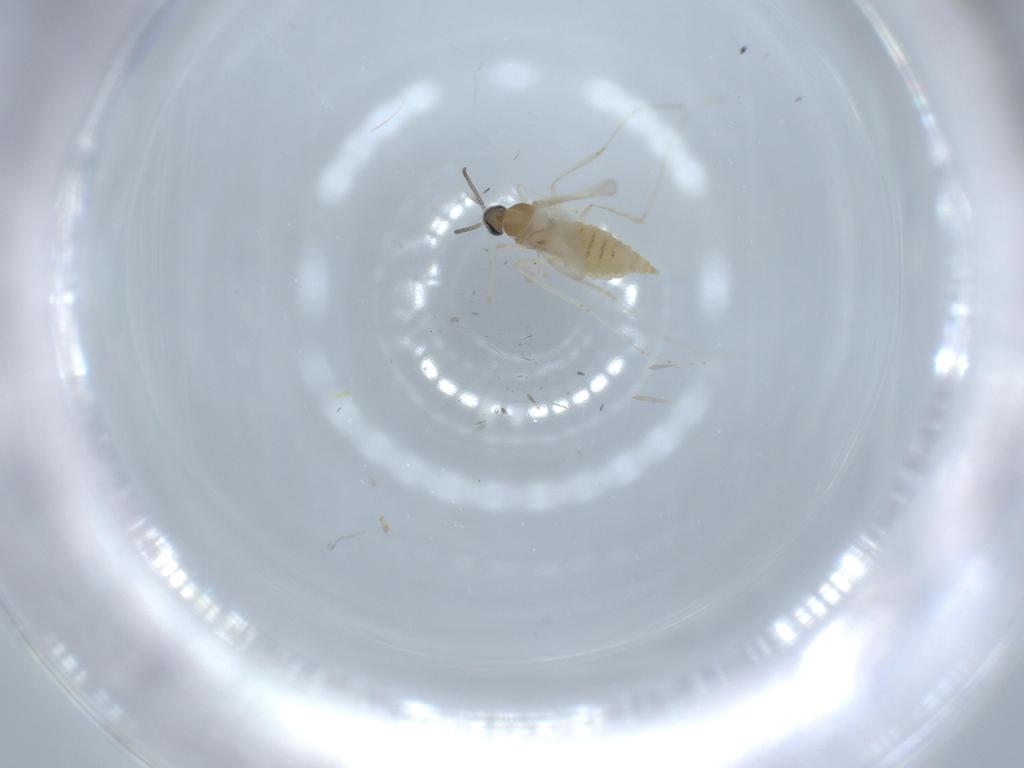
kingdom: Animalia
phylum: Arthropoda
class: Insecta
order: Diptera
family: Cecidomyiidae
